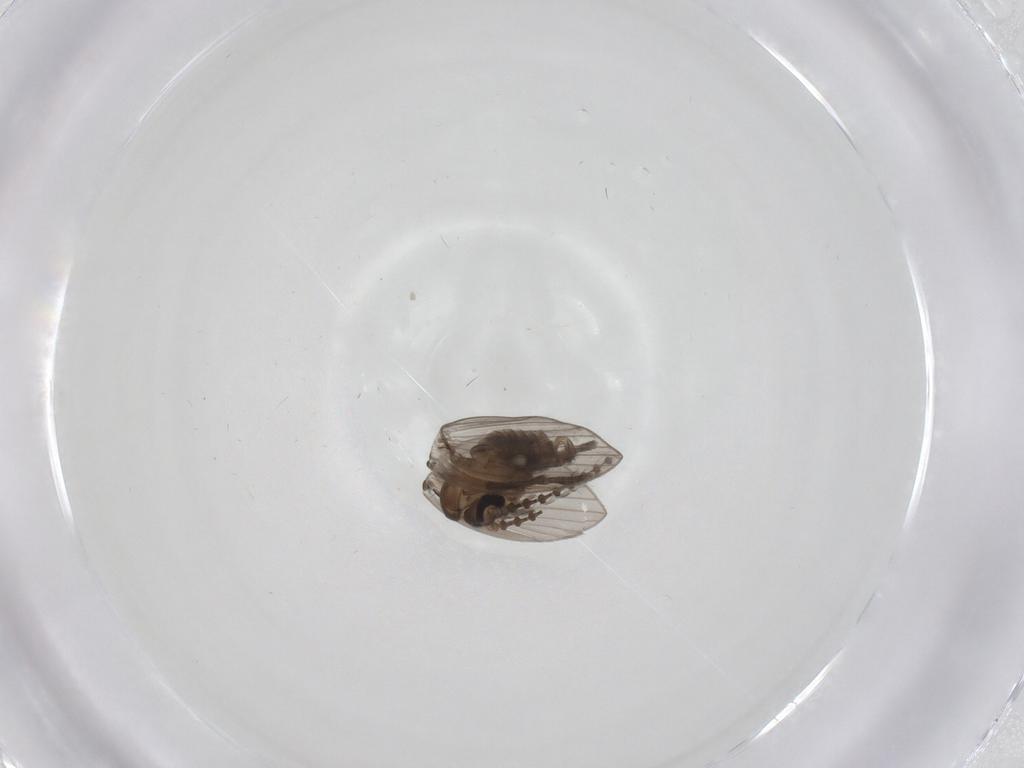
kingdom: Animalia
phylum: Arthropoda
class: Insecta
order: Diptera
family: Psychodidae
